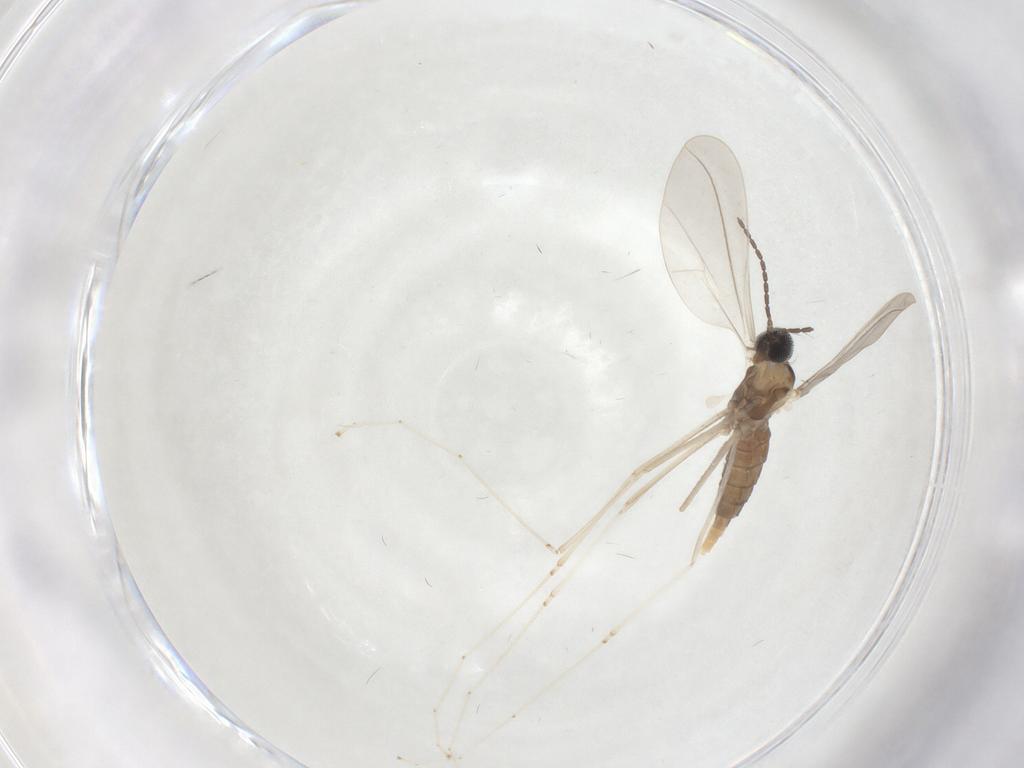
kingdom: Animalia
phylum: Arthropoda
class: Insecta
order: Diptera
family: Cecidomyiidae
